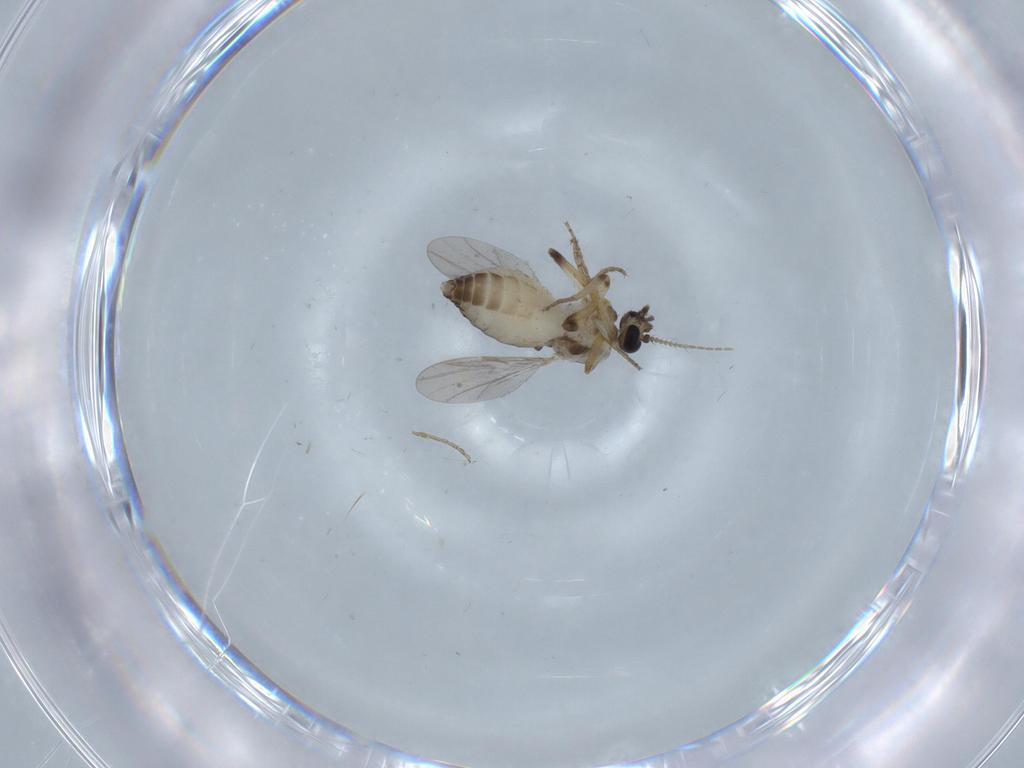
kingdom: Animalia
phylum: Arthropoda
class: Insecta
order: Diptera
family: Ceratopogonidae
